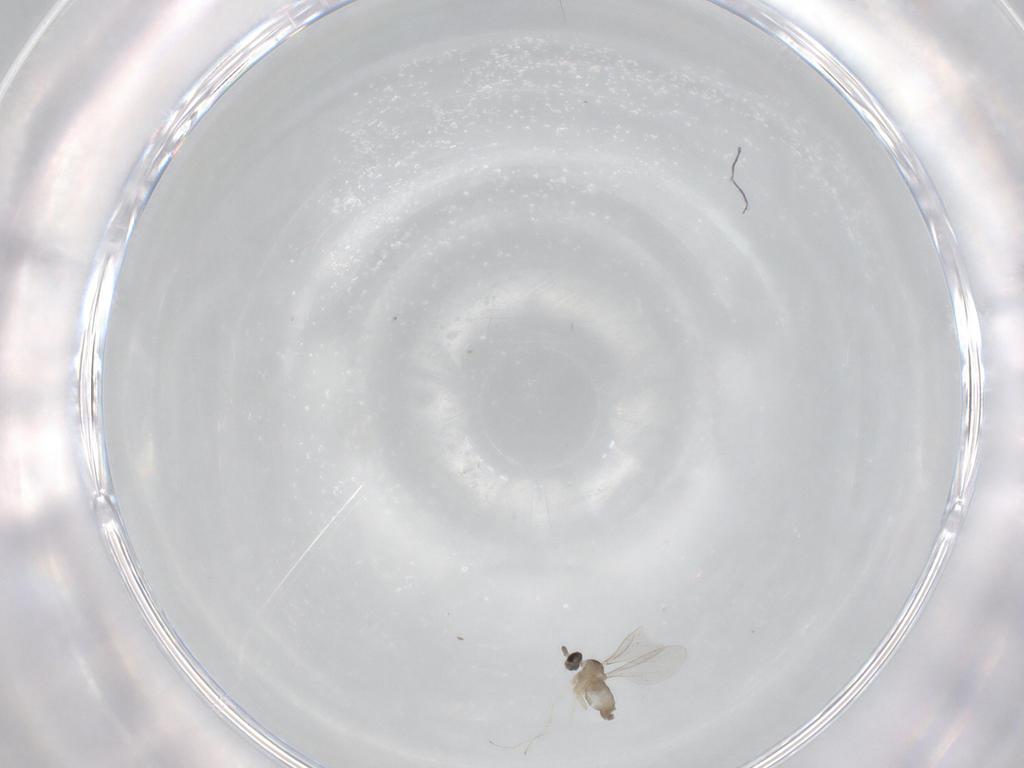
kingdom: Animalia
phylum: Arthropoda
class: Insecta
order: Diptera
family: Cecidomyiidae
